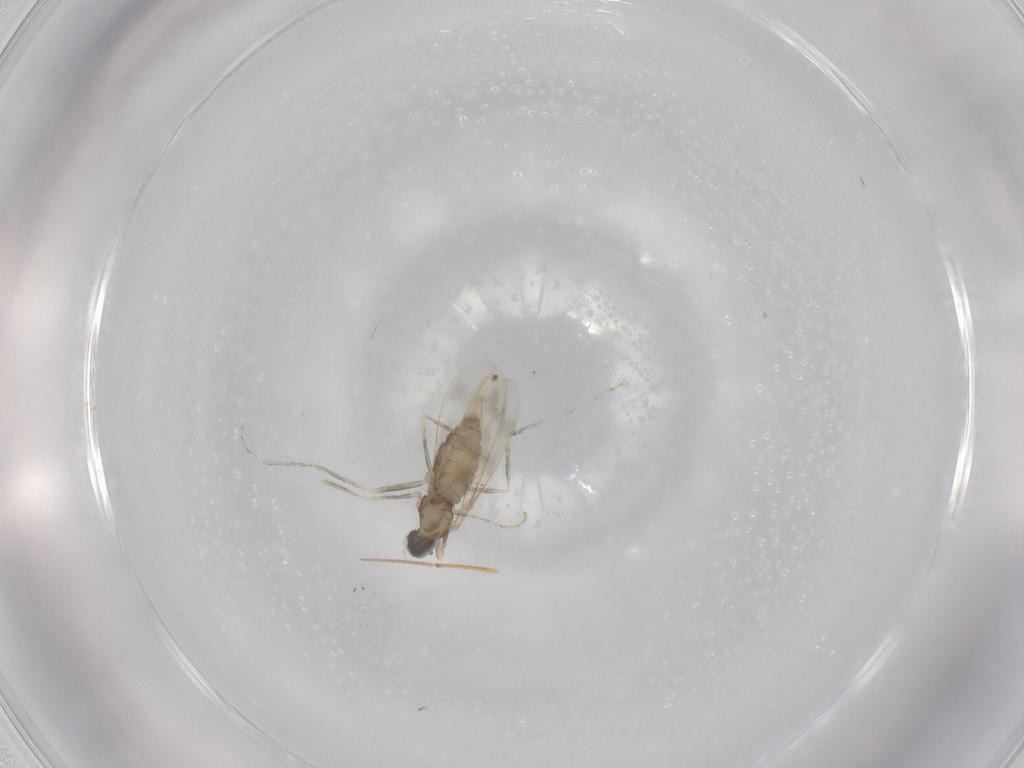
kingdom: Animalia
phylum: Arthropoda
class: Insecta
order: Diptera
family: Cecidomyiidae
